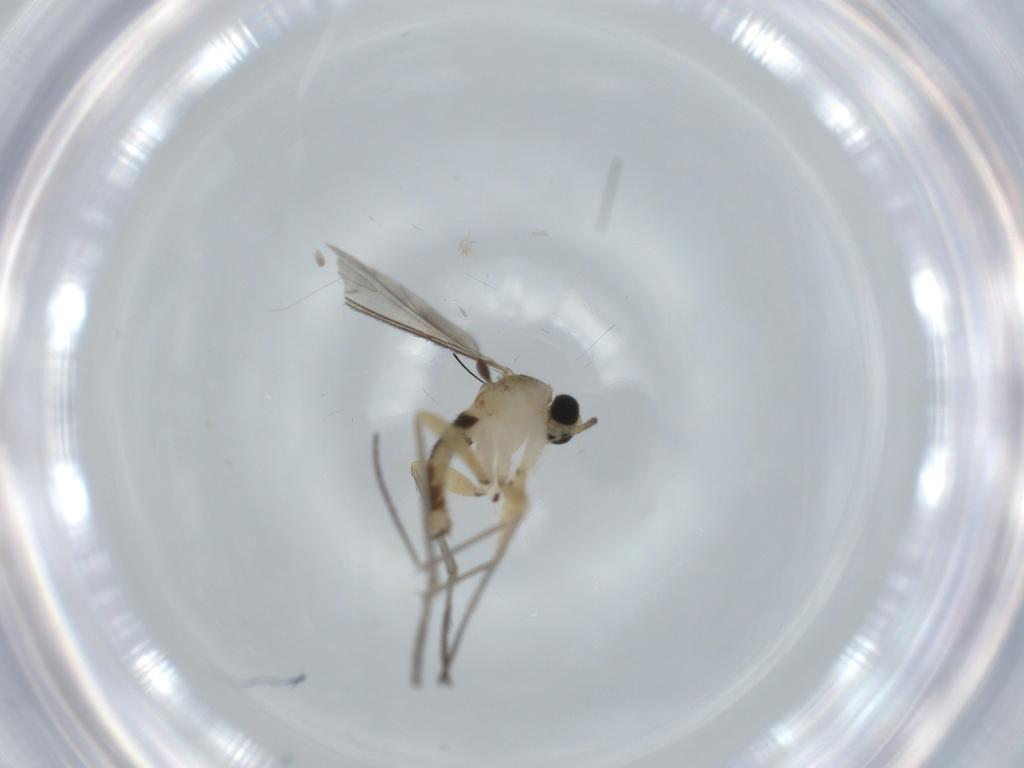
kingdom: Animalia
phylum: Arthropoda
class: Insecta
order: Diptera
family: Sciaridae
